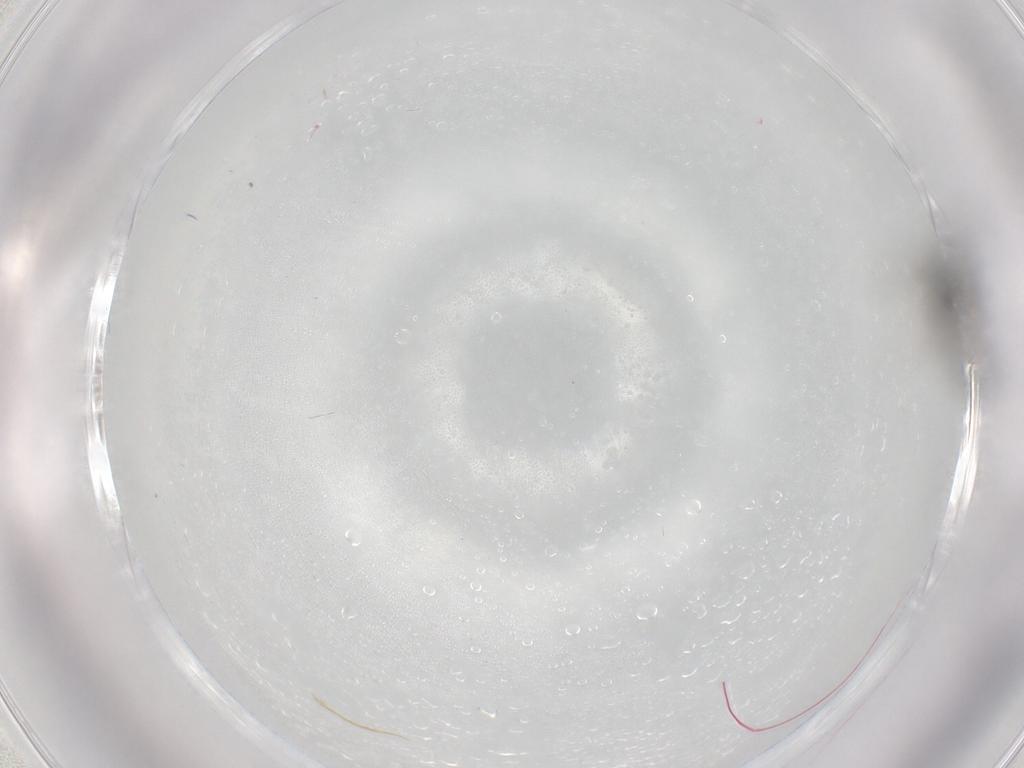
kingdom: Animalia
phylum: Arthropoda
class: Insecta
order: Hymenoptera
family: Scelionidae
